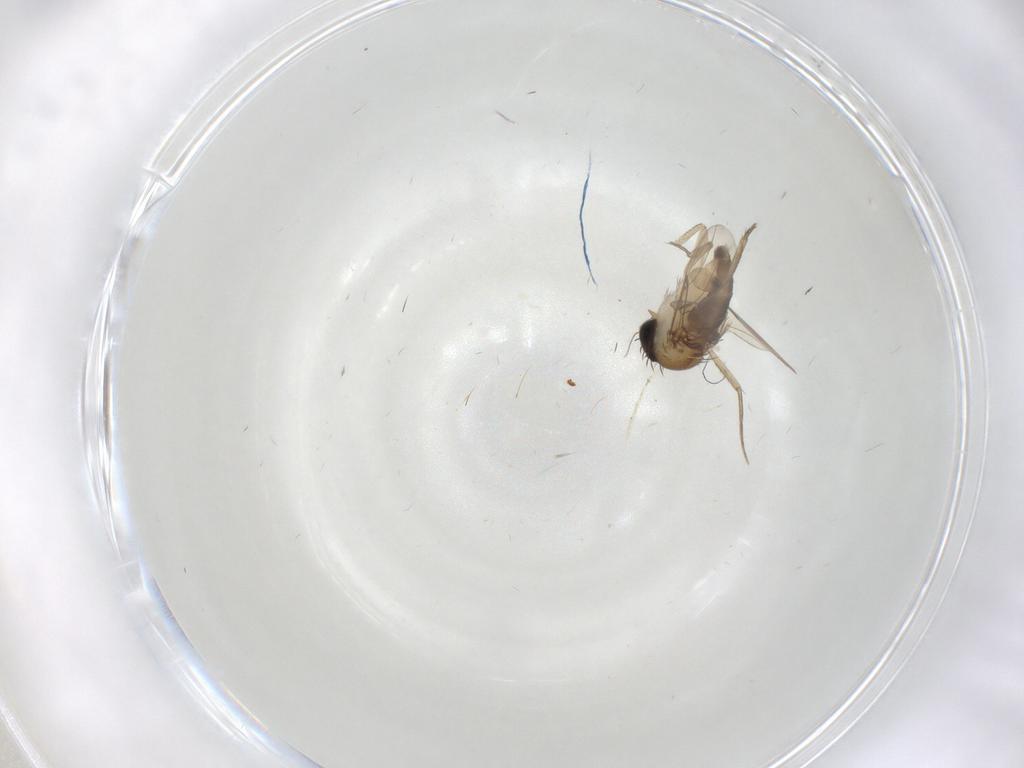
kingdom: Animalia
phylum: Arthropoda
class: Insecta
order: Diptera
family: Phoridae
